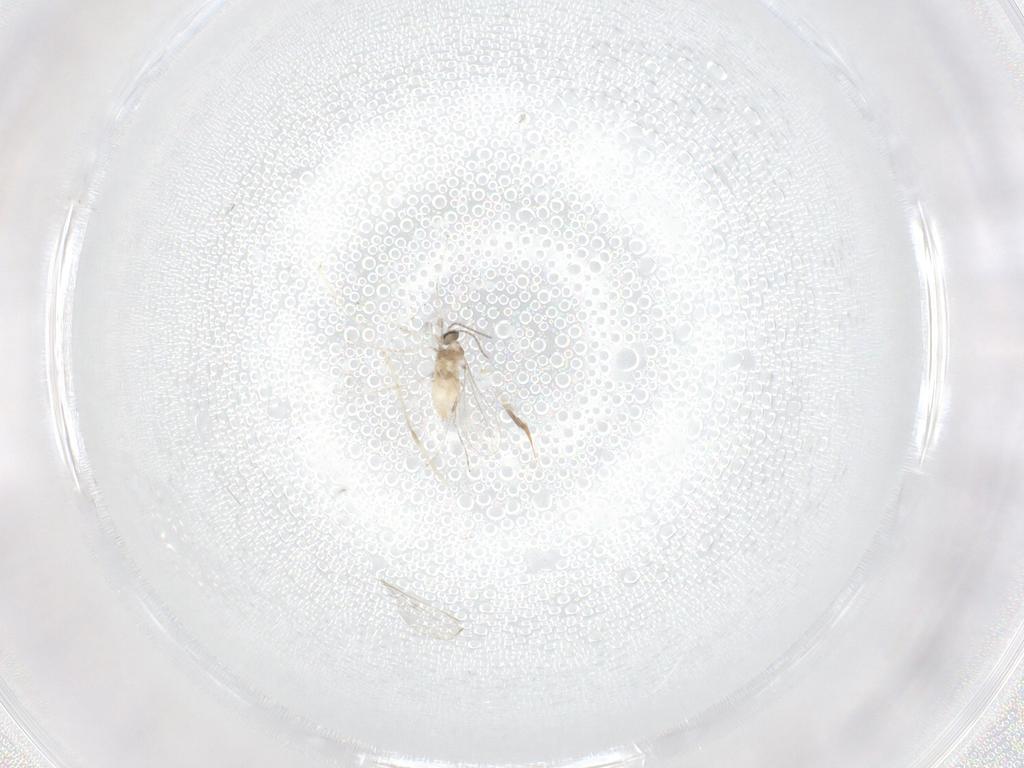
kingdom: Animalia
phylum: Arthropoda
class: Insecta
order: Diptera
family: Cecidomyiidae
